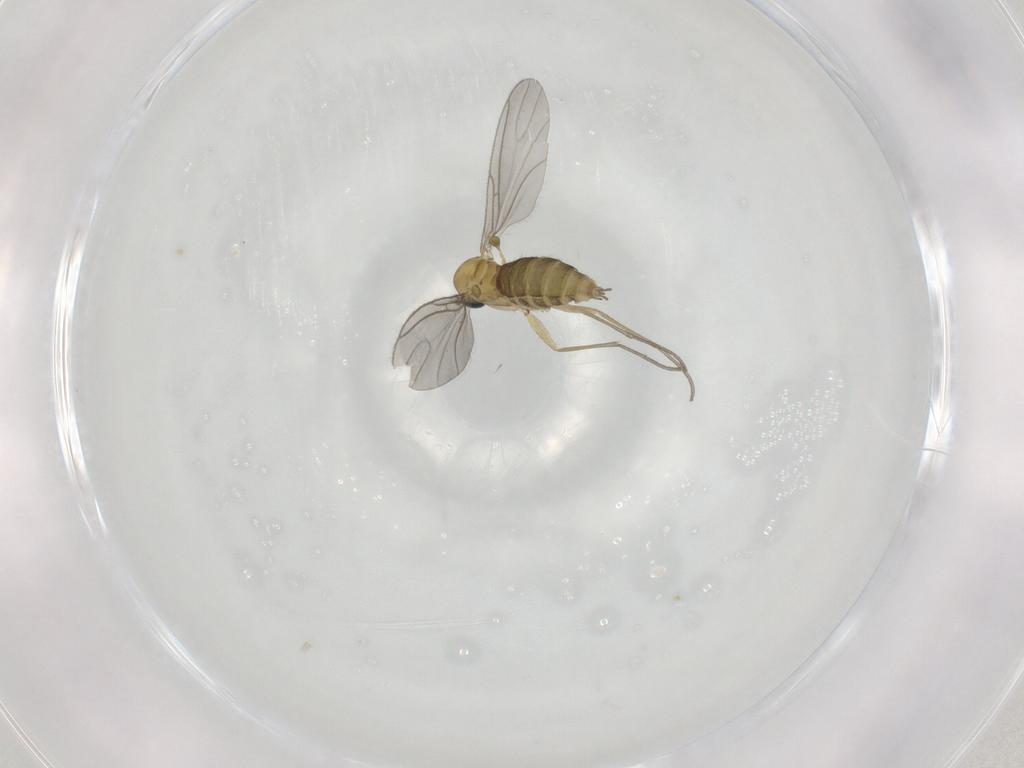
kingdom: Animalia
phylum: Arthropoda
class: Insecta
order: Diptera
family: Sciaridae
